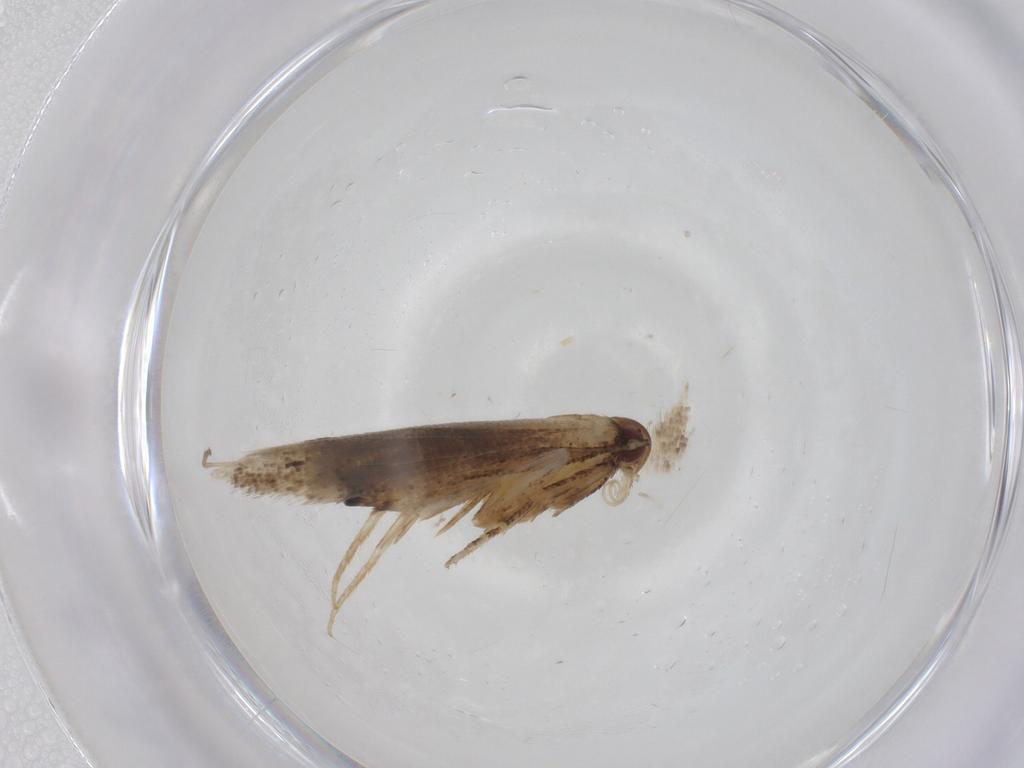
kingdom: Animalia
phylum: Arthropoda
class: Insecta
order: Lepidoptera
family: Elachistidae
